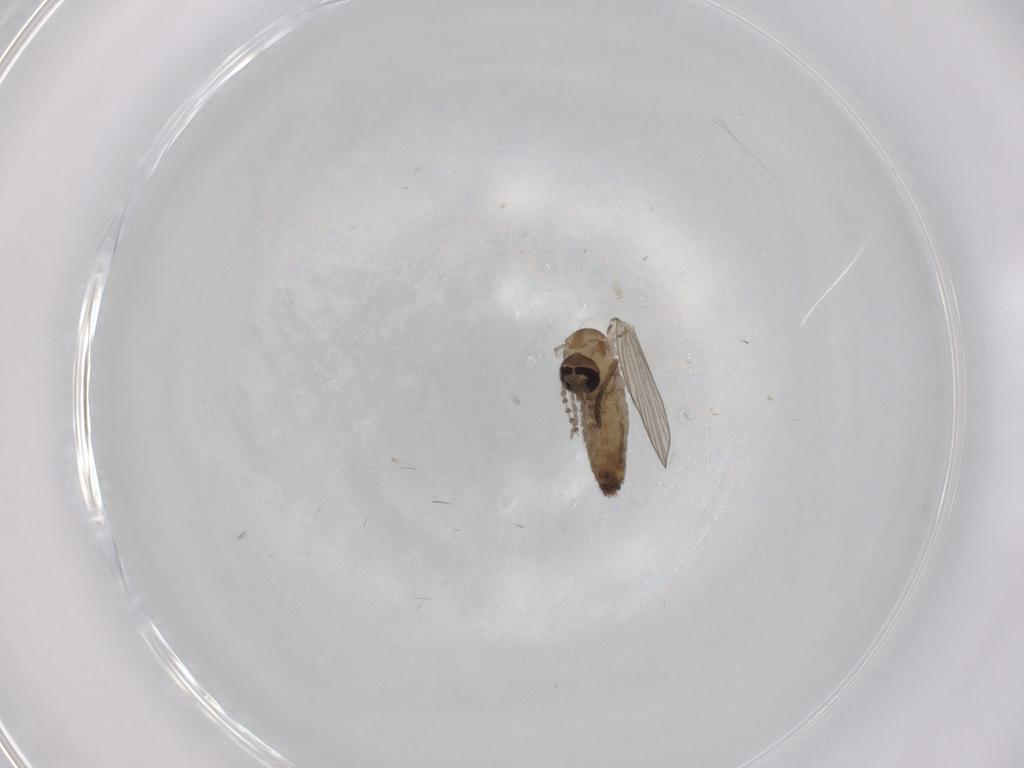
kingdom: Animalia
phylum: Arthropoda
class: Insecta
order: Diptera
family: Psychodidae
